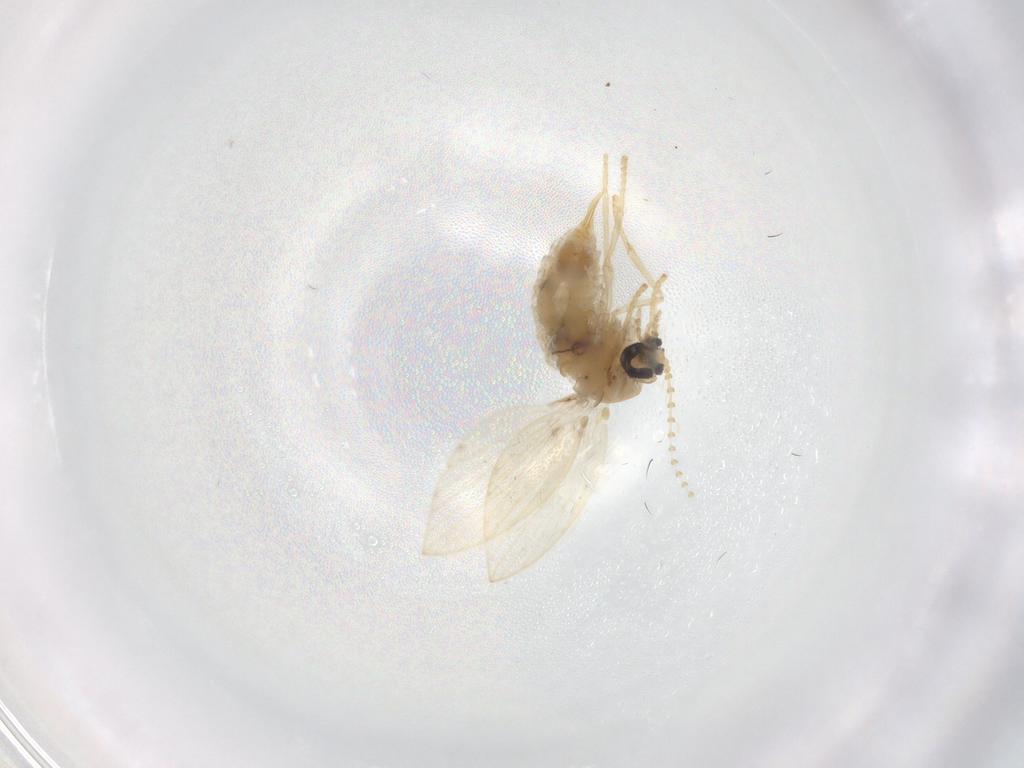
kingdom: Animalia
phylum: Arthropoda
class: Insecta
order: Diptera
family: Psychodidae
